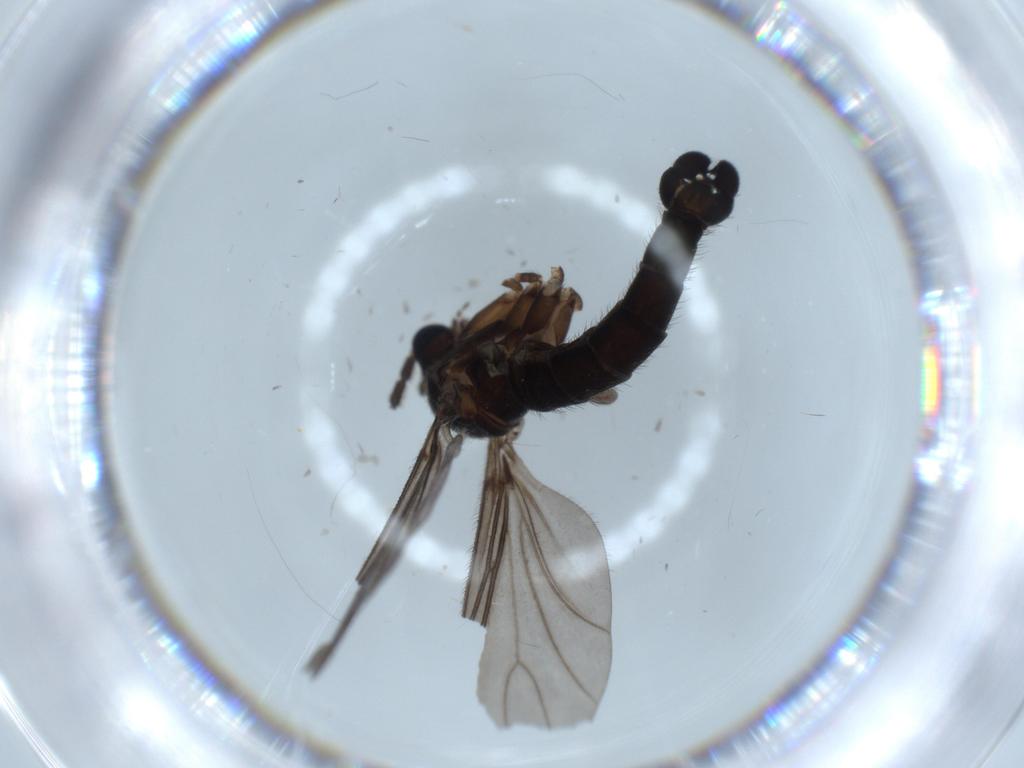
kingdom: Animalia
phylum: Arthropoda
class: Insecta
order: Diptera
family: Sciaridae
